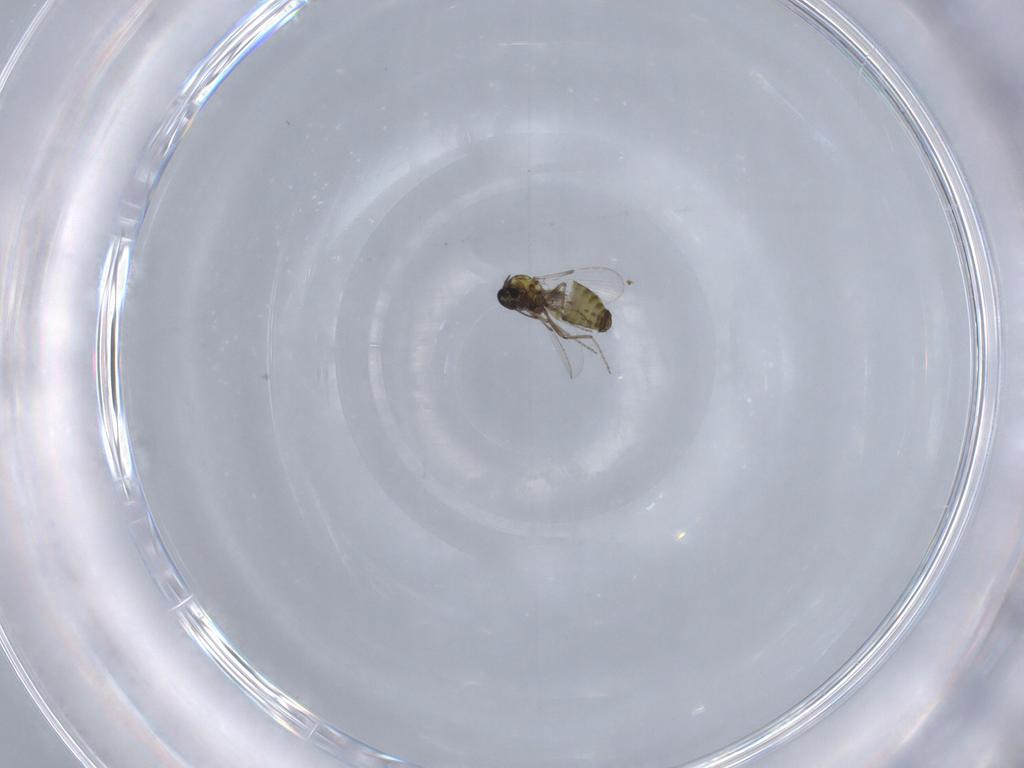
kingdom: Animalia
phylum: Arthropoda
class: Insecta
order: Diptera
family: Ceratopogonidae
